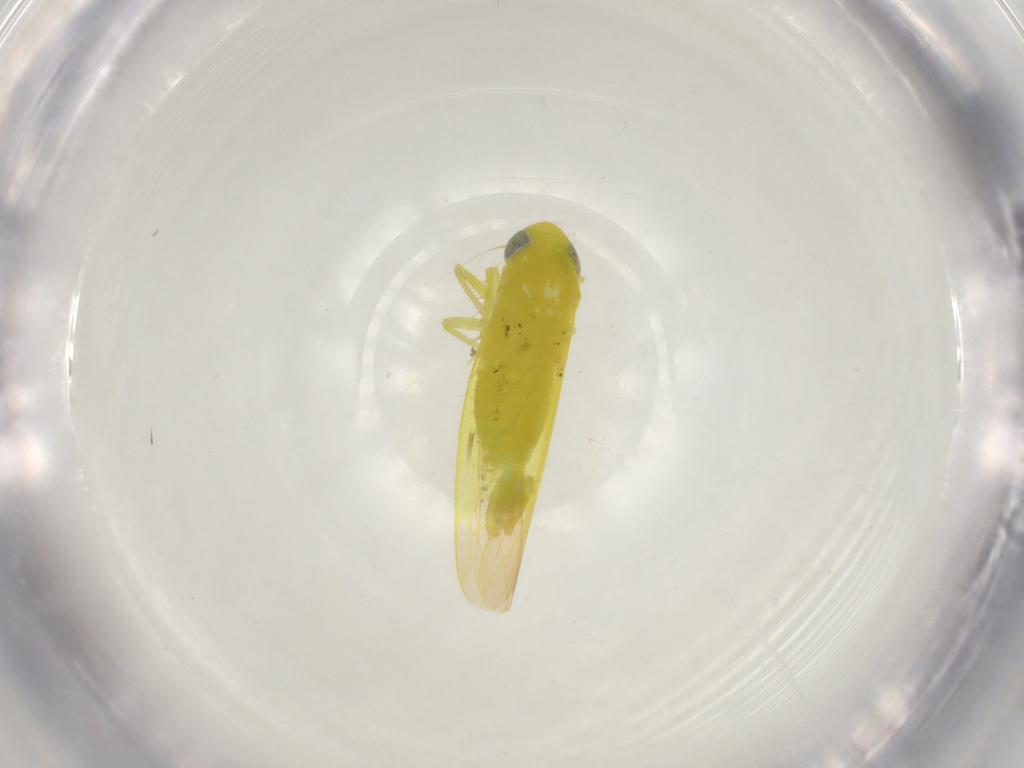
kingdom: Animalia
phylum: Arthropoda
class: Insecta
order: Hemiptera
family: Cicadellidae
